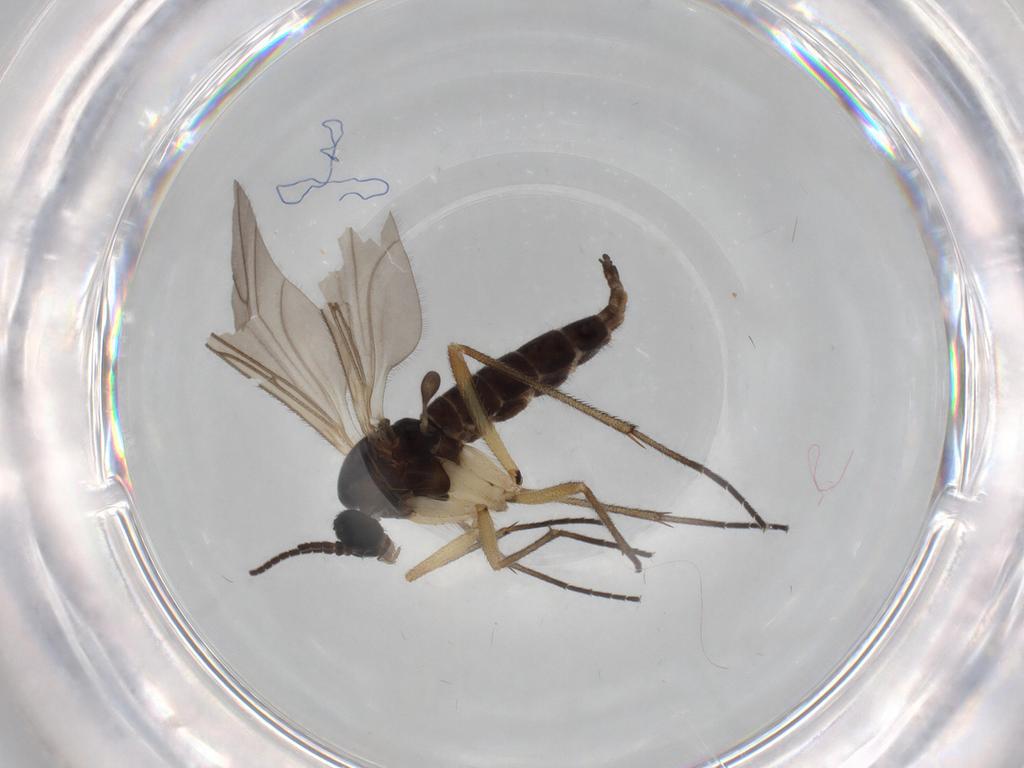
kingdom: Animalia
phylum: Arthropoda
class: Insecta
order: Diptera
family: Sciaridae
